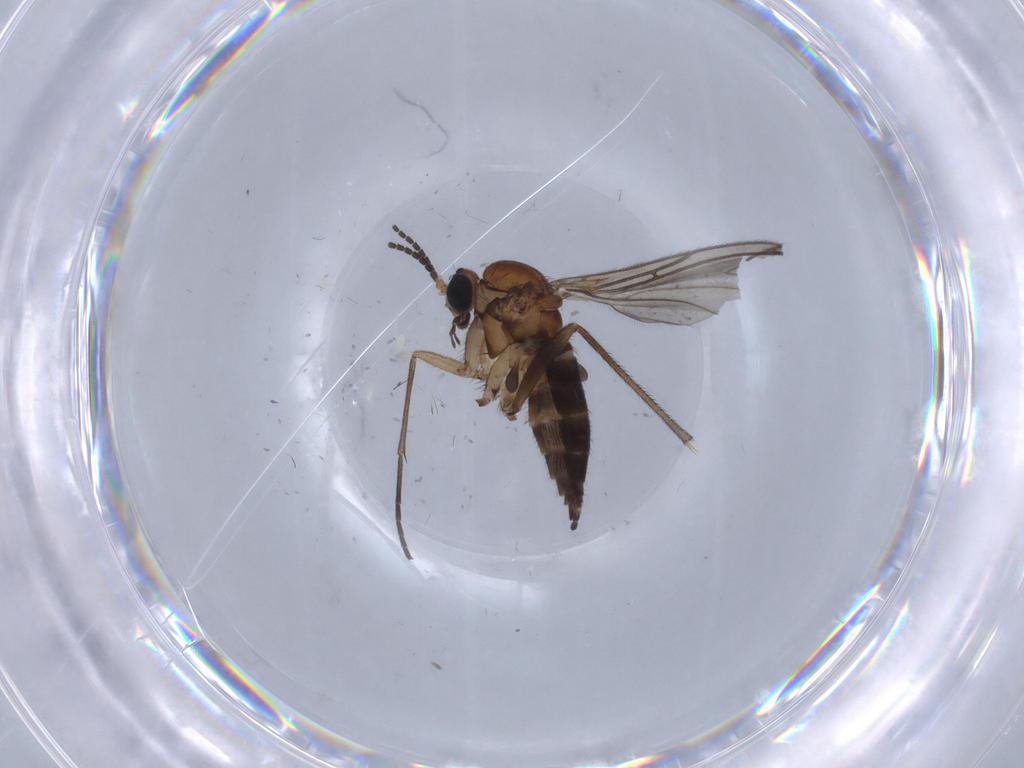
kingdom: Animalia
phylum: Arthropoda
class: Insecta
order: Diptera
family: Sciaridae
